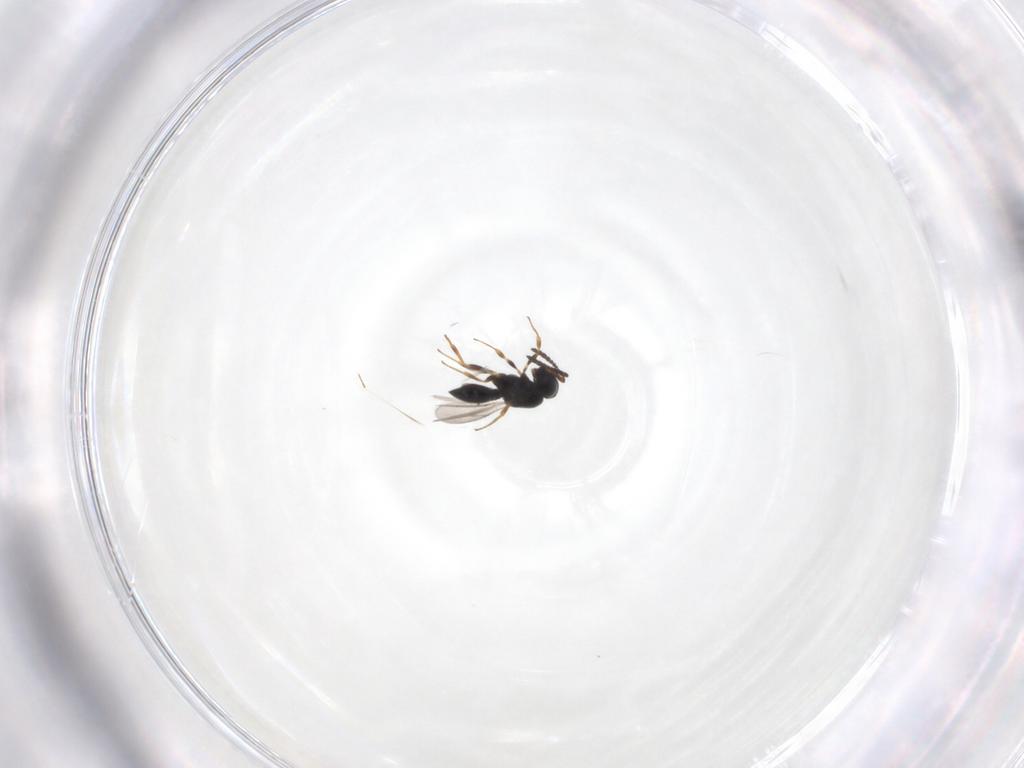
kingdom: Animalia
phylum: Arthropoda
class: Insecta
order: Hymenoptera
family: Scelionidae
